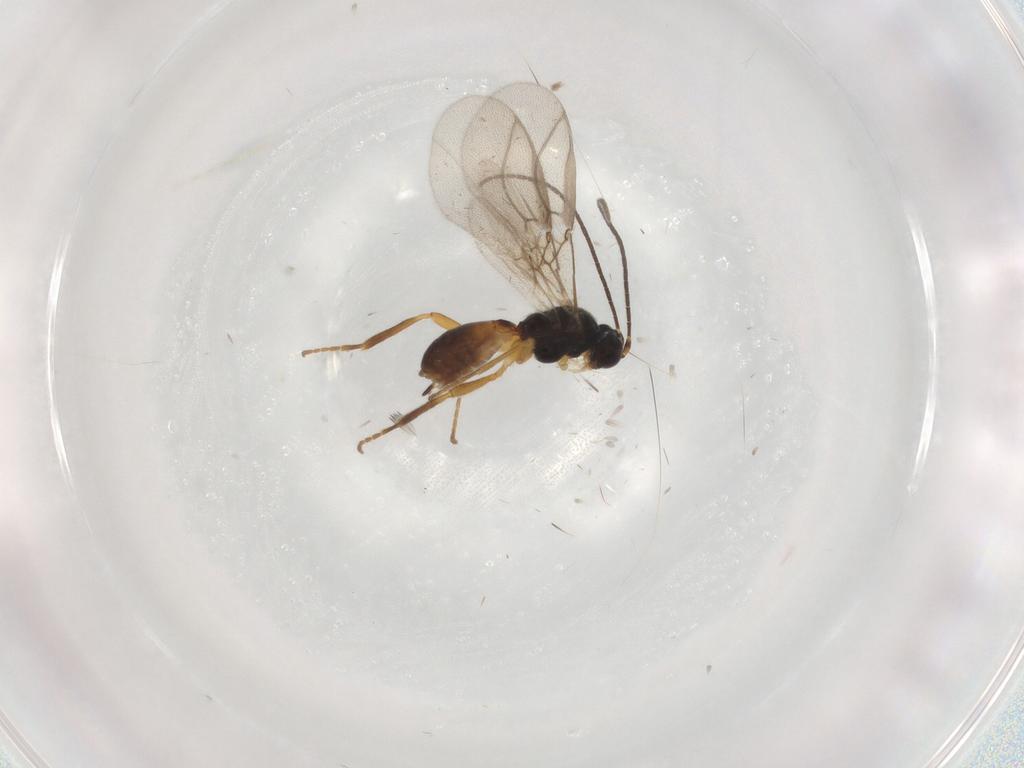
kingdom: Animalia
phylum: Arthropoda
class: Insecta
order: Hymenoptera
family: Braconidae
